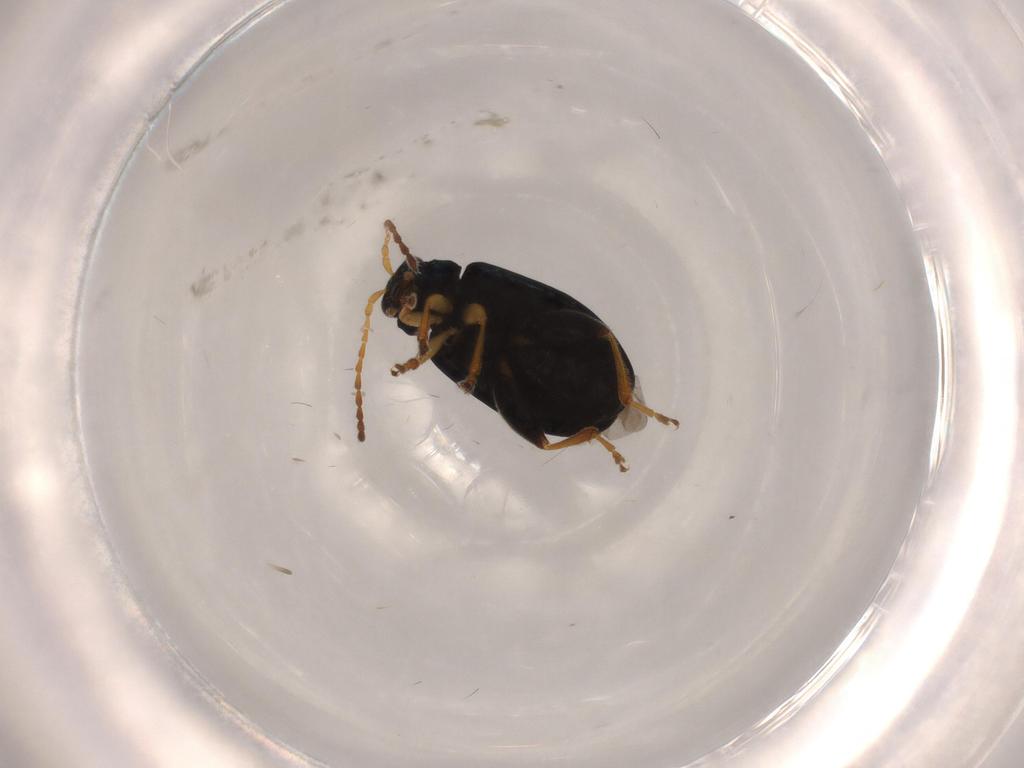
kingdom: Animalia
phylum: Arthropoda
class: Insecta
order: Coleoptera
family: Chrysomelidae
